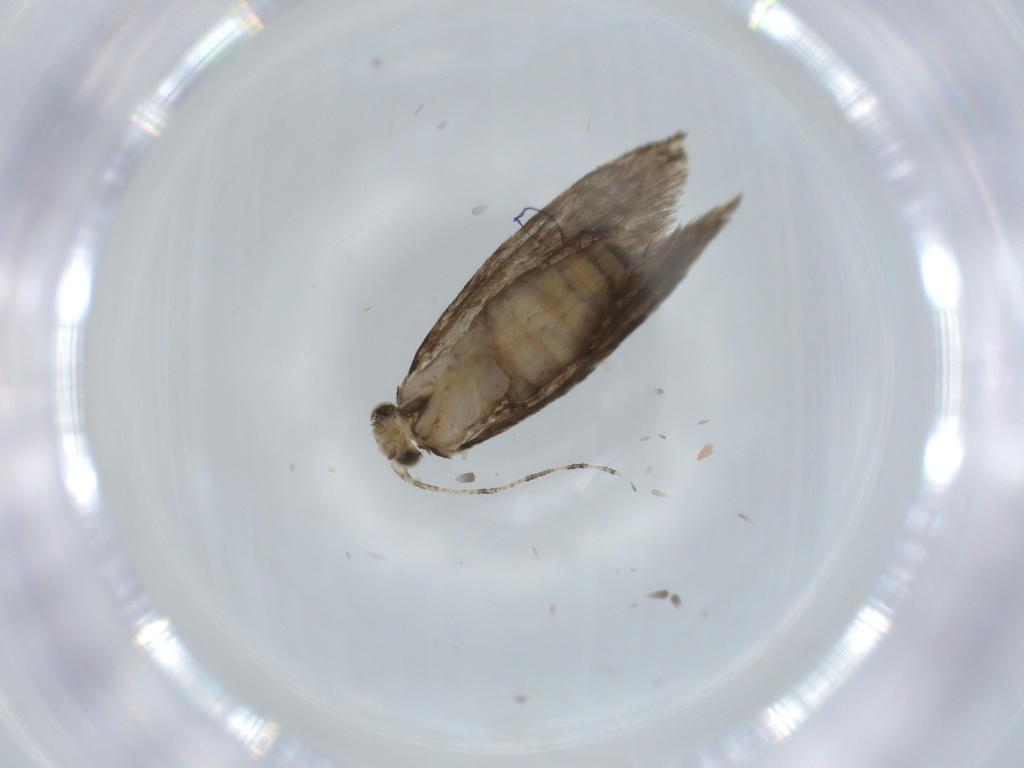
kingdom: Animalia
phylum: Arthropoda
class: Insecta
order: Lepidoptera
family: Tineidae
